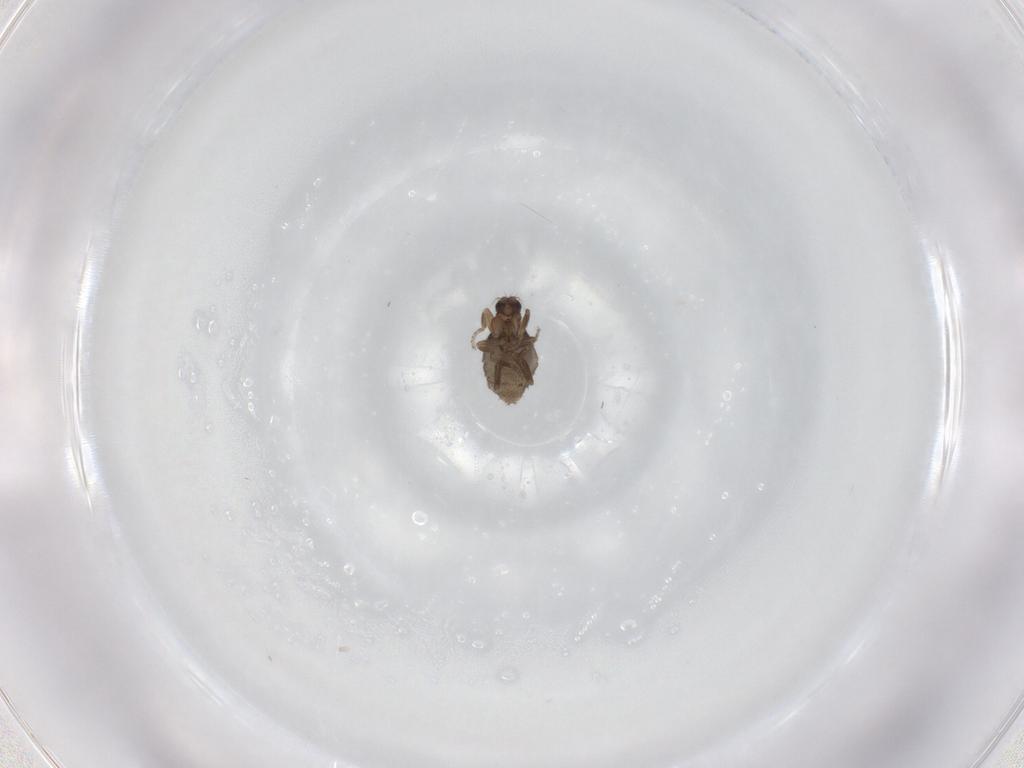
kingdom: Animalia
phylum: Arthropoda
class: Insecta
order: Diptera
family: Phoridae
